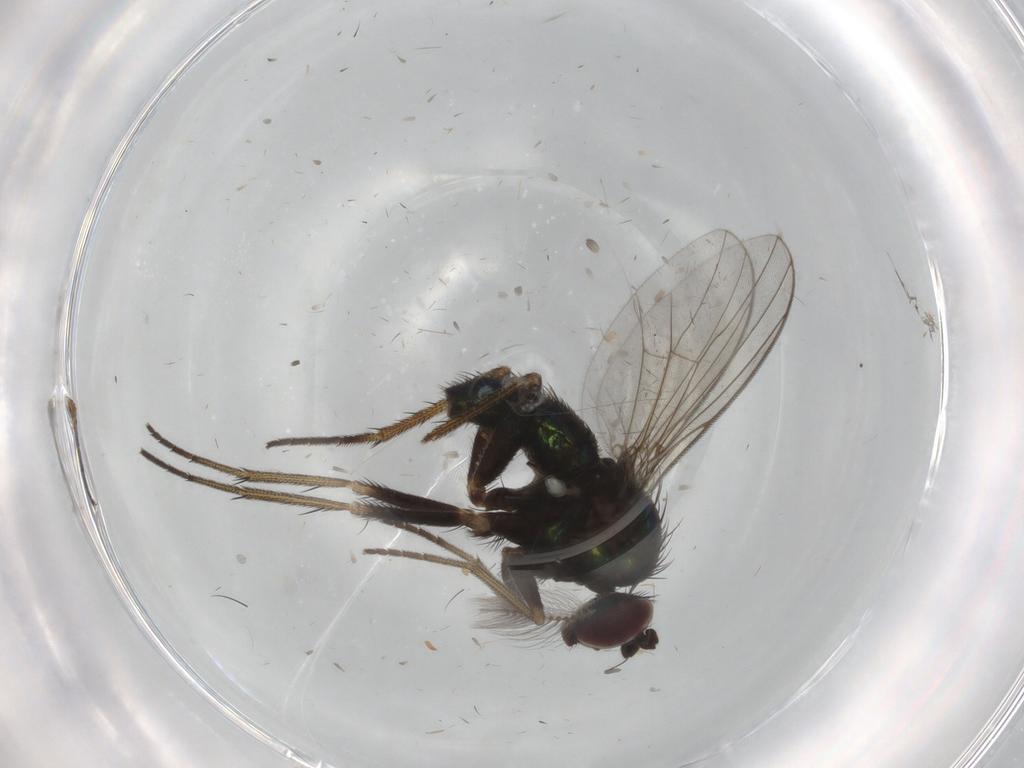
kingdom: Animalia
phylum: Arthropoda
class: Insecta
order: Diptera
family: Dolichopodidae
